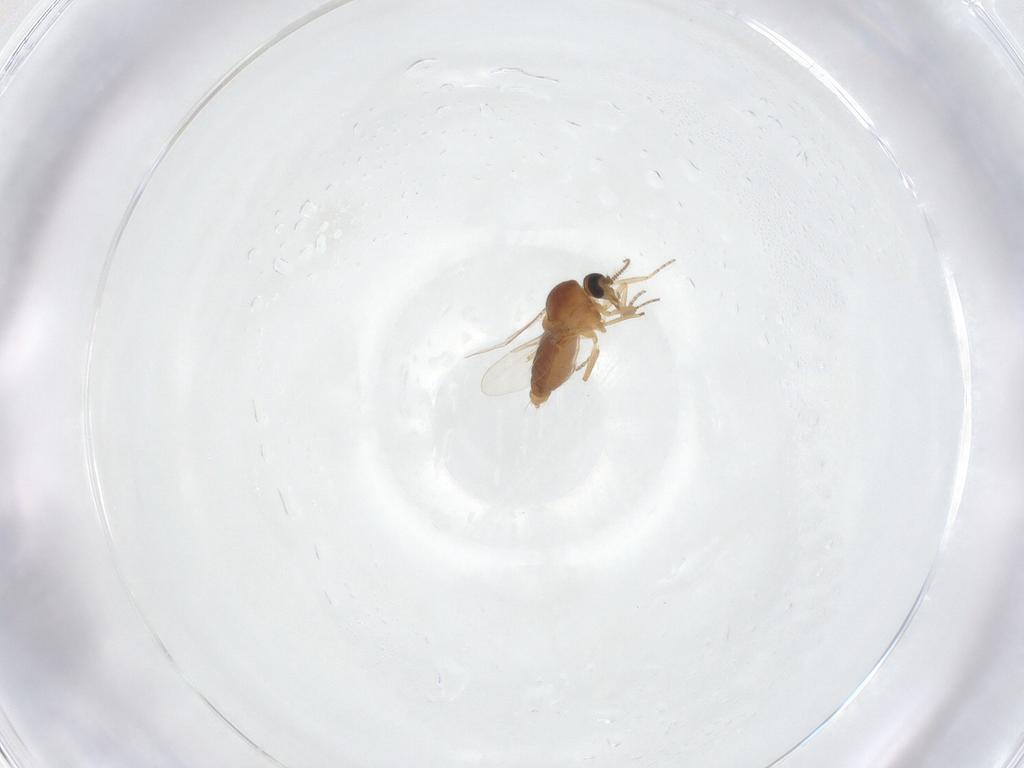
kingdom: Animalia
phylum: Arthropoda
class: Insecta
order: Diptera
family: Ceratopogonidae
